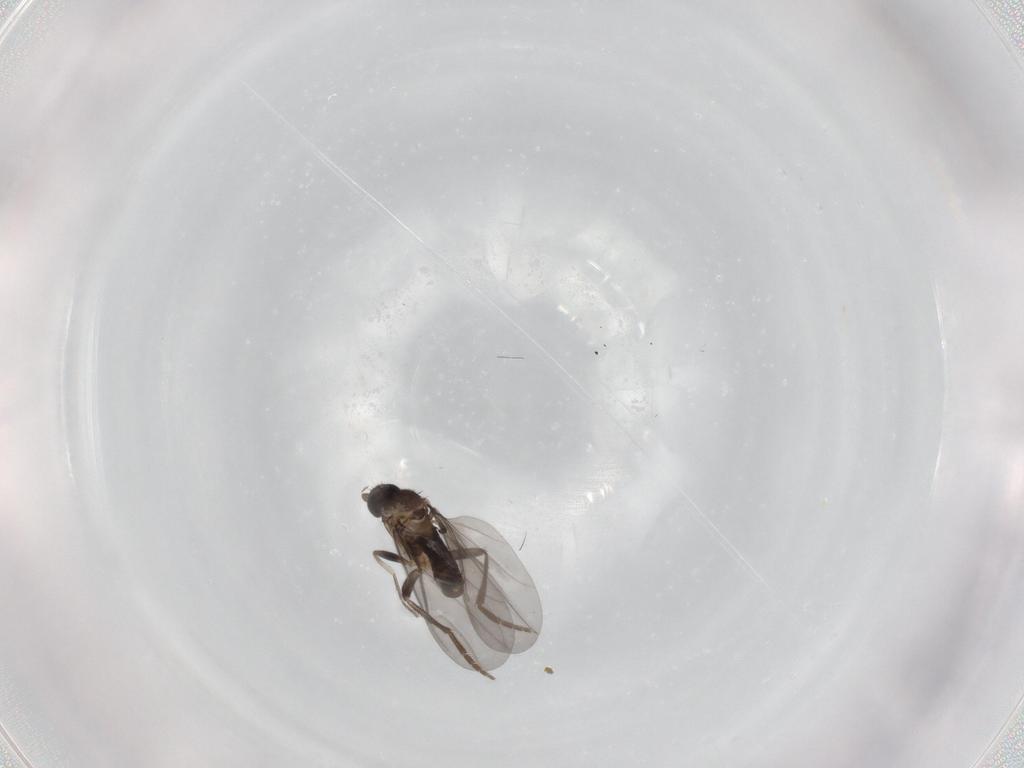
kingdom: Animalia
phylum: Arthropoda
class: Insecta
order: Diptera
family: Phoridae
